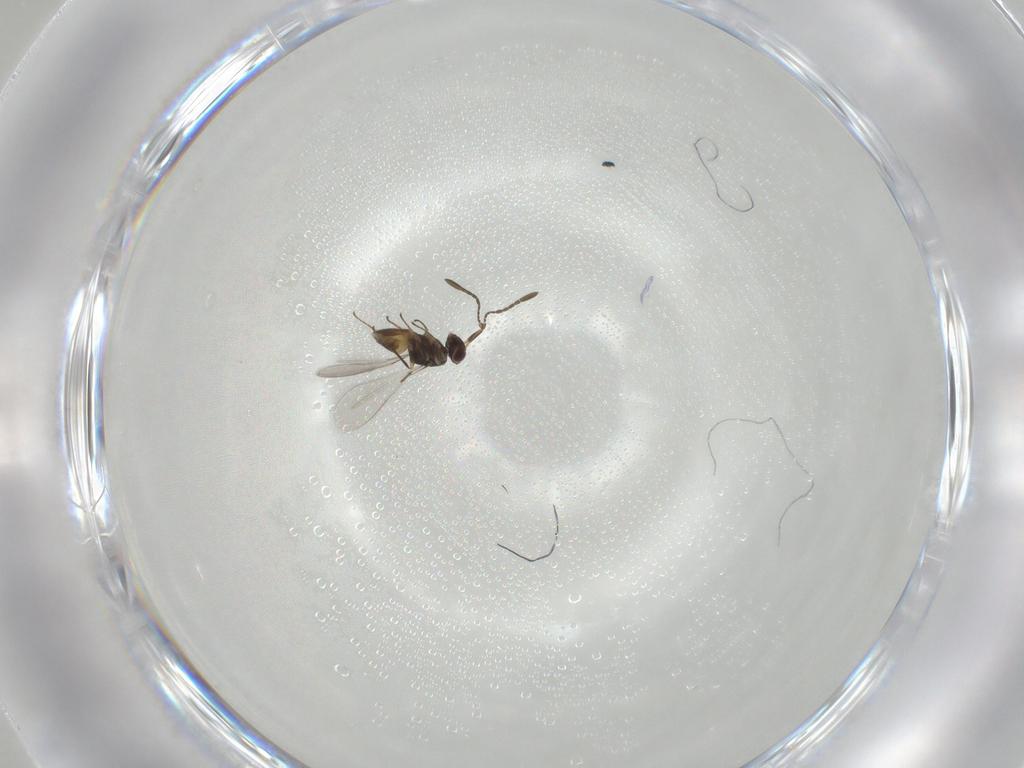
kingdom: Animalia
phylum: Arthropoda
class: Insecta
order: Hymenoptera
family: Mymaridae
